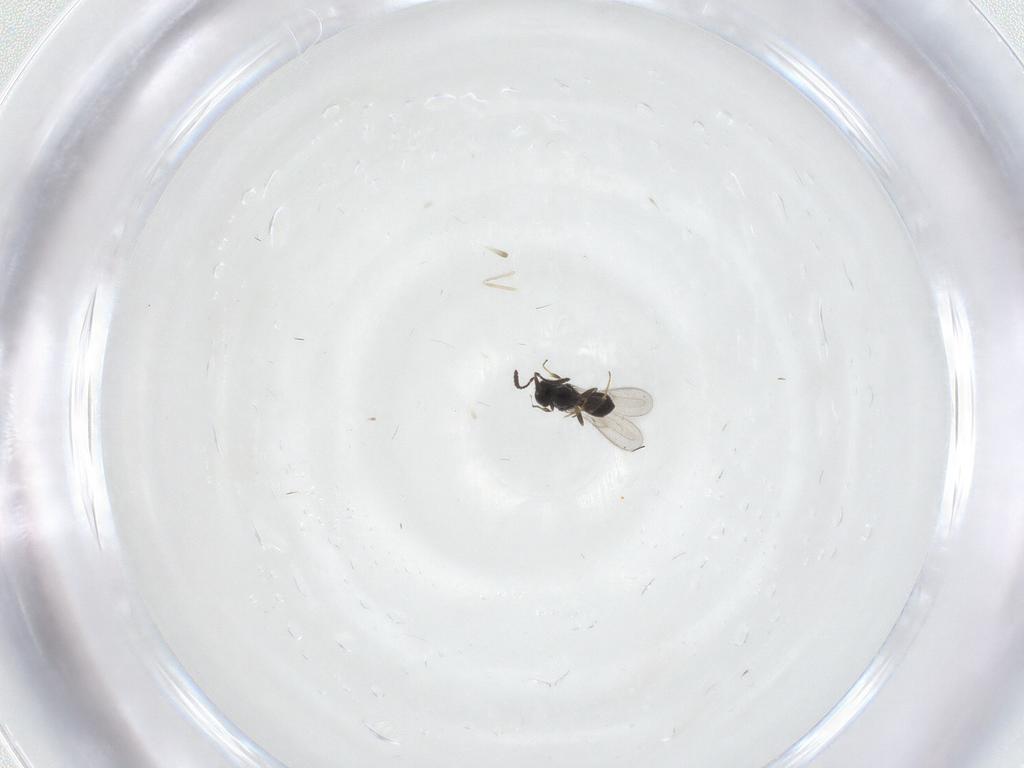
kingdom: Animalia
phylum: Arthropoda
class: Insecta
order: Hymenoptera
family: Scelionidae
